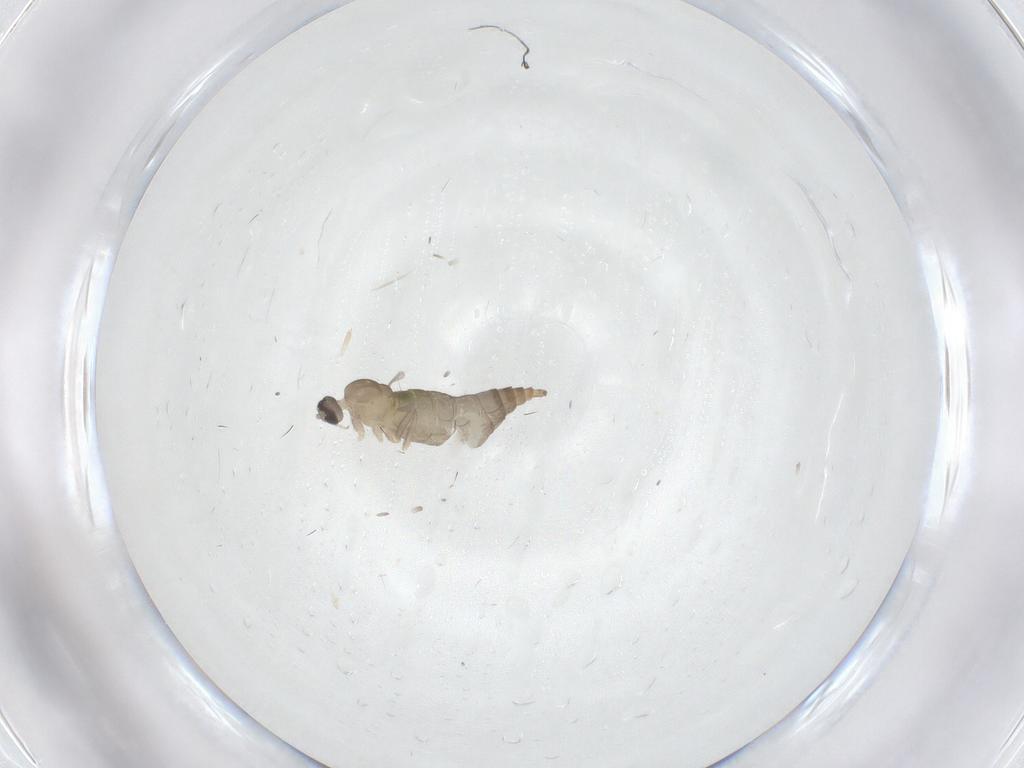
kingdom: Animalia
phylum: Arthropoda
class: Insecta
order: Diptera
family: Cecidomyiidae
